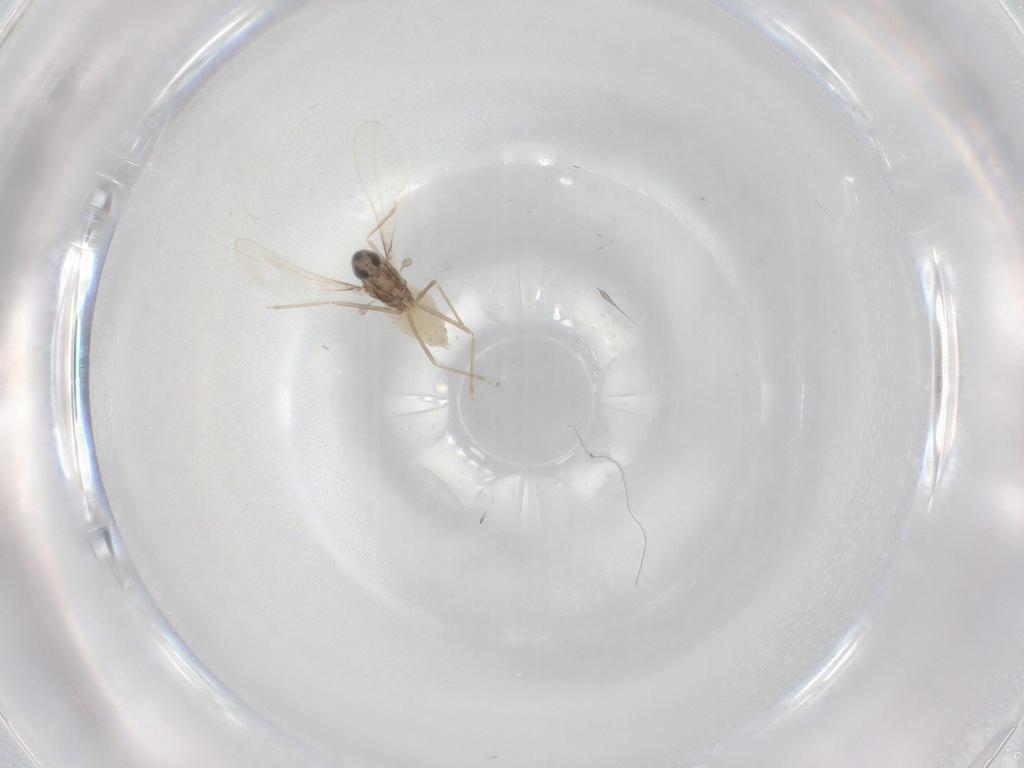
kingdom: Animalia
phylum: Arthropoda
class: Insecta
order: Diptera
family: Cecidomyiidae
